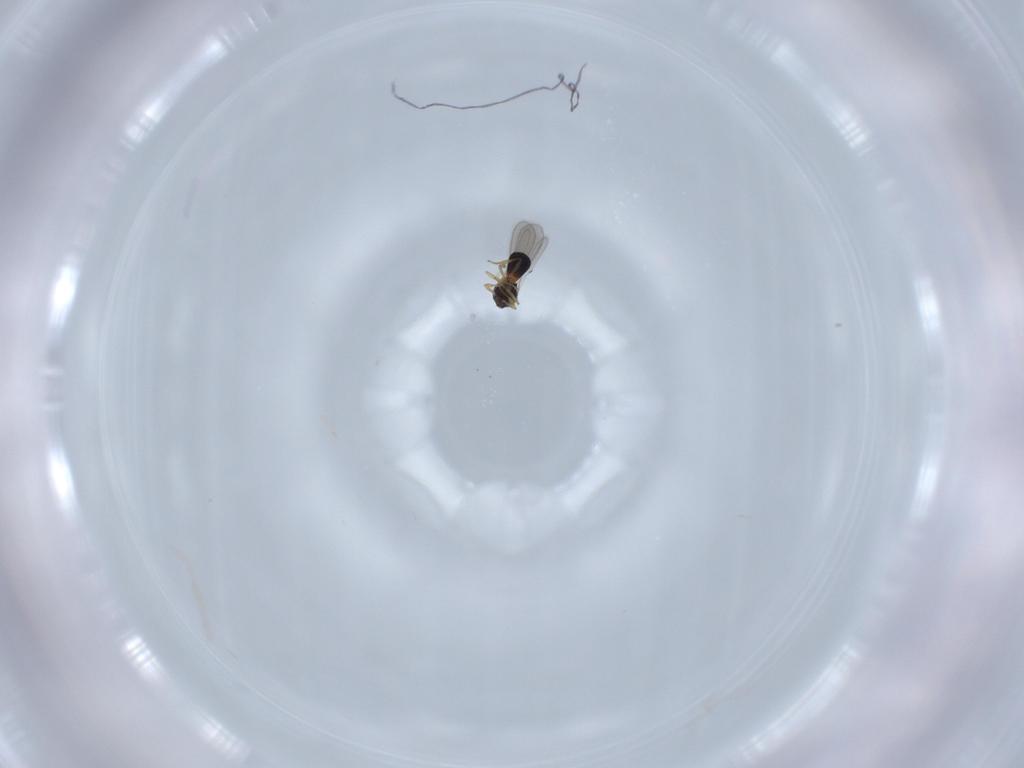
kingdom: Animalia
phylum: Arthropoda
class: Insecta
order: Hymenoptera
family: Scelionidae
